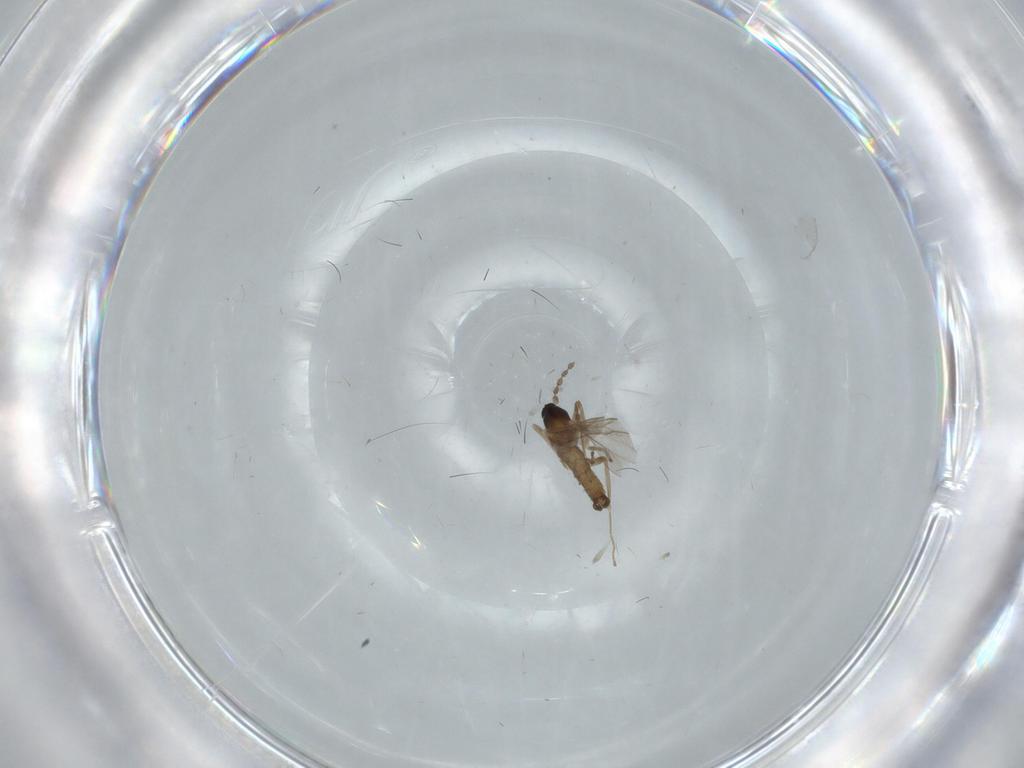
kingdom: Animalia
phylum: Arthropoda
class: Insecta
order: Diptera
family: Cecidomyiidae
